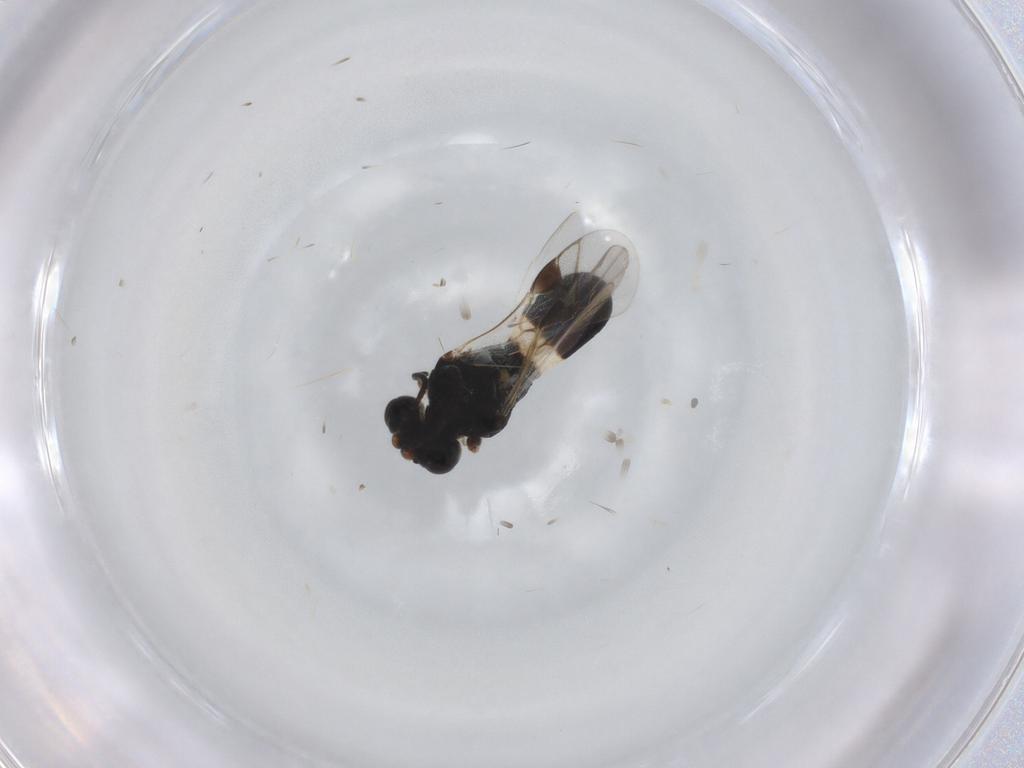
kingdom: Animalia
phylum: Arthropoda
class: Insecta
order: Hymenoptera
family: Braconidae
